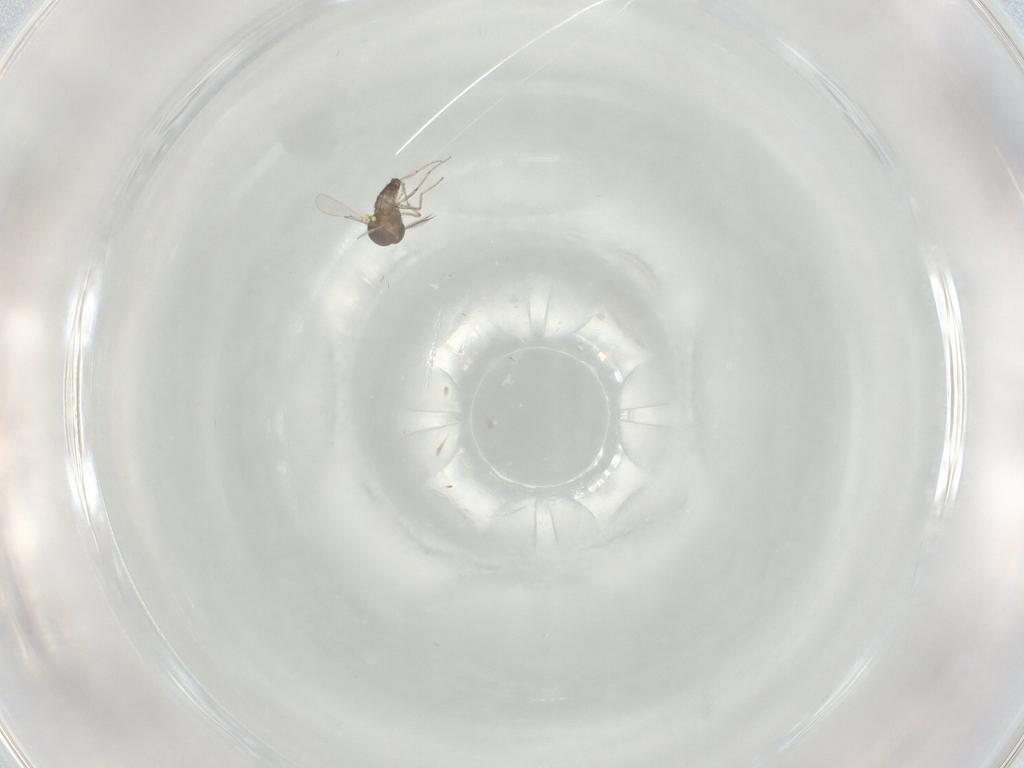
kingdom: Animalia
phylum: Arthropoda
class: Insecta
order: Diptera
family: Ceratopogonidae
